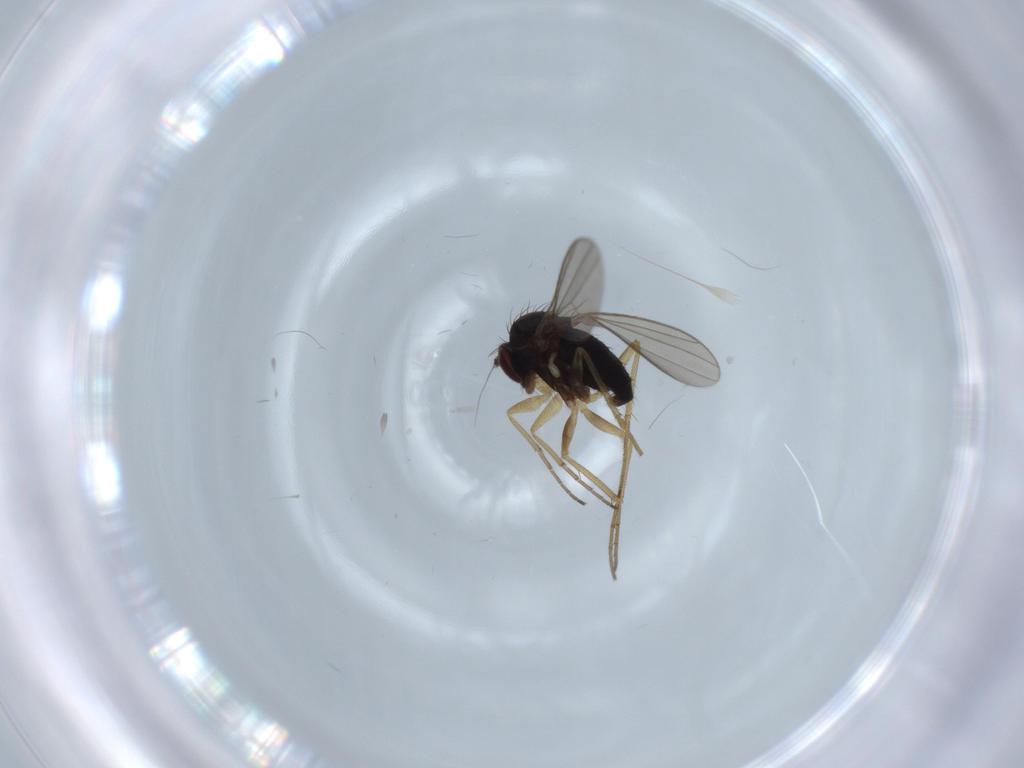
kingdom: Animalia
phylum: Arthropoda
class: Insecta
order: Diptera
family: Dolichopodidae
